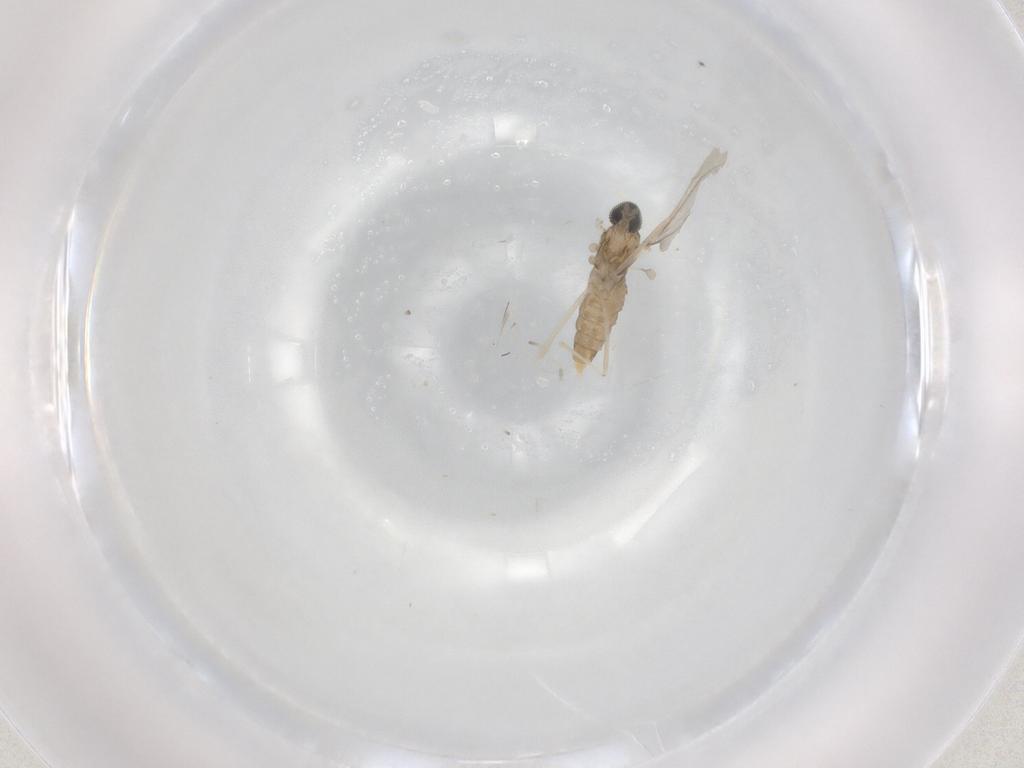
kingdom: Animalia
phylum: Arthropoda
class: Insecta
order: Diptera
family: Cecidomyiidae
